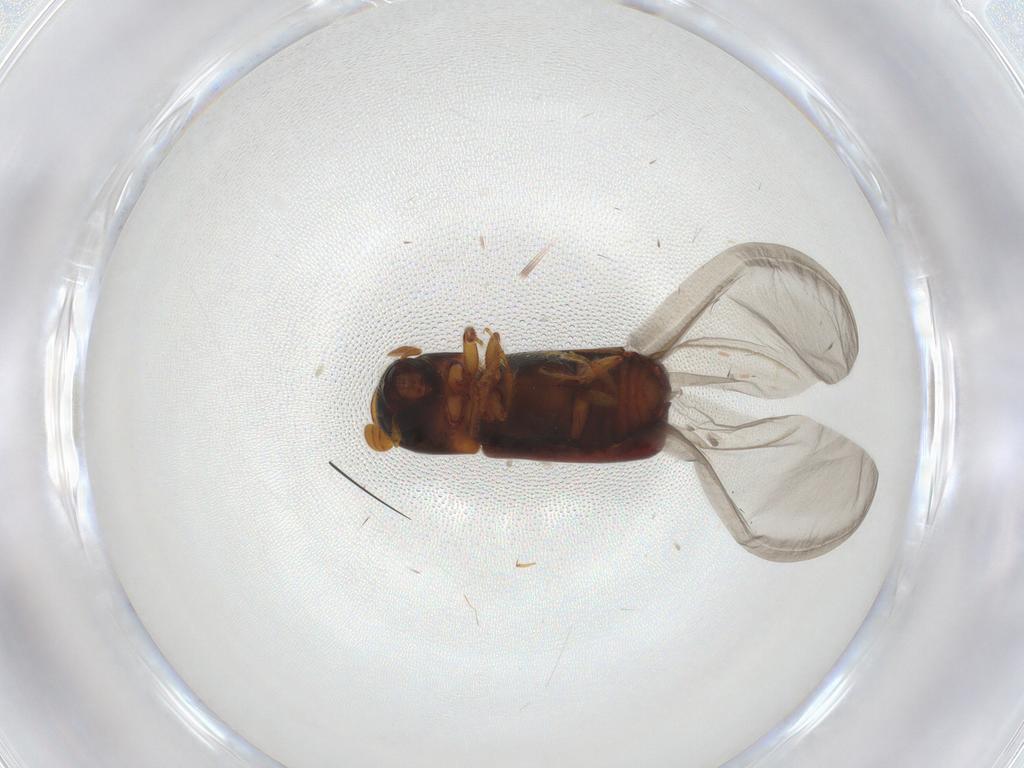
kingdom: Animalia
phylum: Arthropoda
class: Insecta
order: Coleoptera
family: Curculionidae
